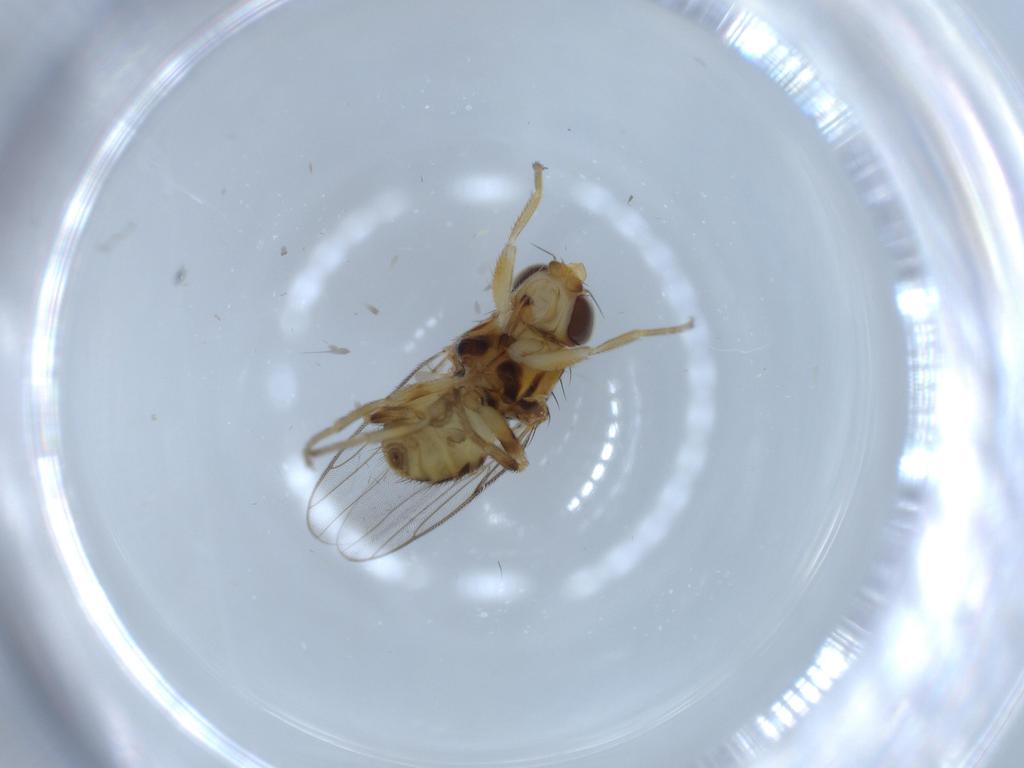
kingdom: Animalia
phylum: Arthropoda
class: Insecta
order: Diptera
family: Chloropidae
